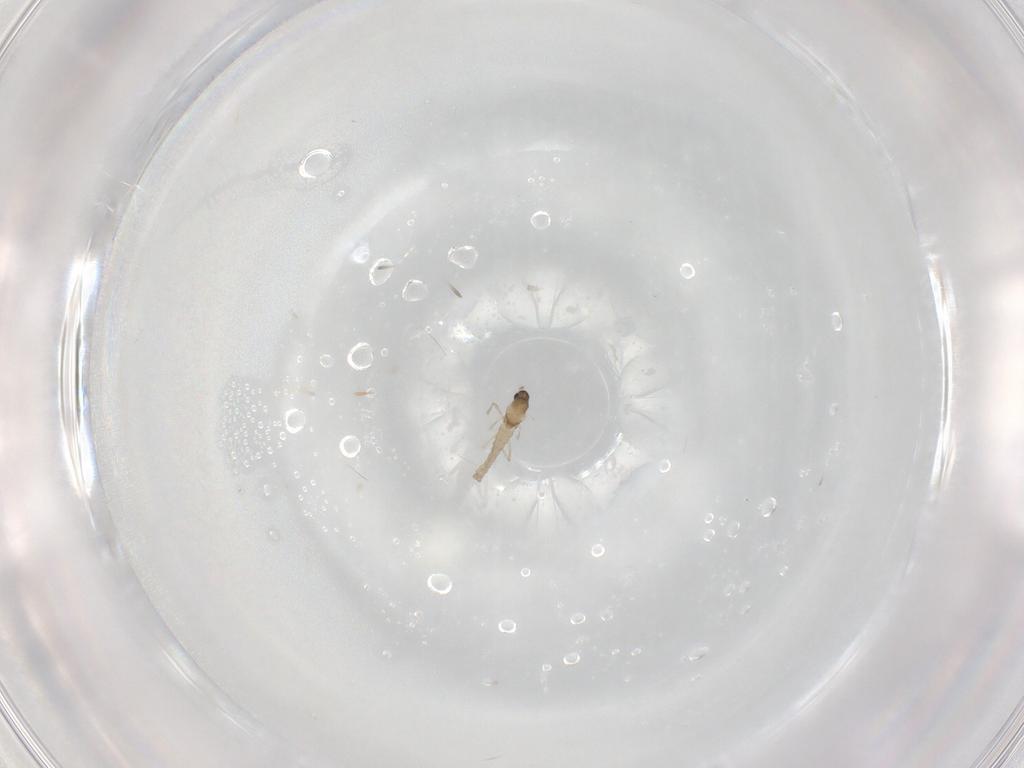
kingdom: Animalia
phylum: Arthropoda
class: Insecta
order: Diptera
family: Cecidomyiidae
